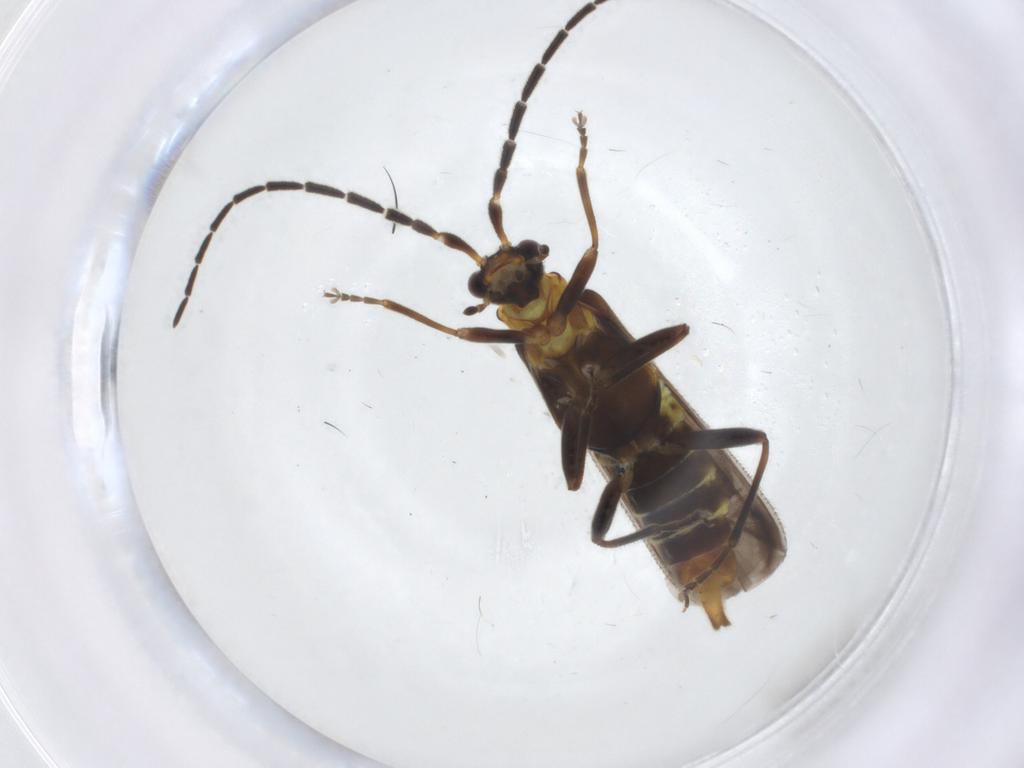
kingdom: Animalia
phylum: Arthropoda
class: Insecta
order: Coleoptera
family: Cantharidae
